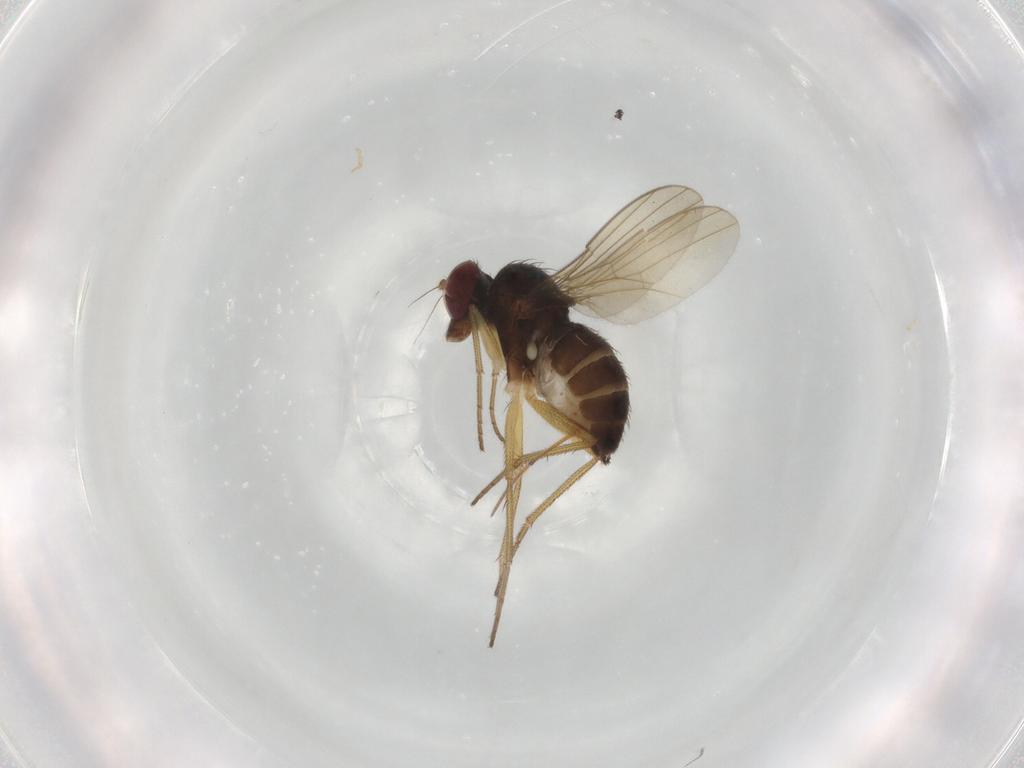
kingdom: Animalia
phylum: Arthropoda
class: Insecta
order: Diptera
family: Dolichopodidae
